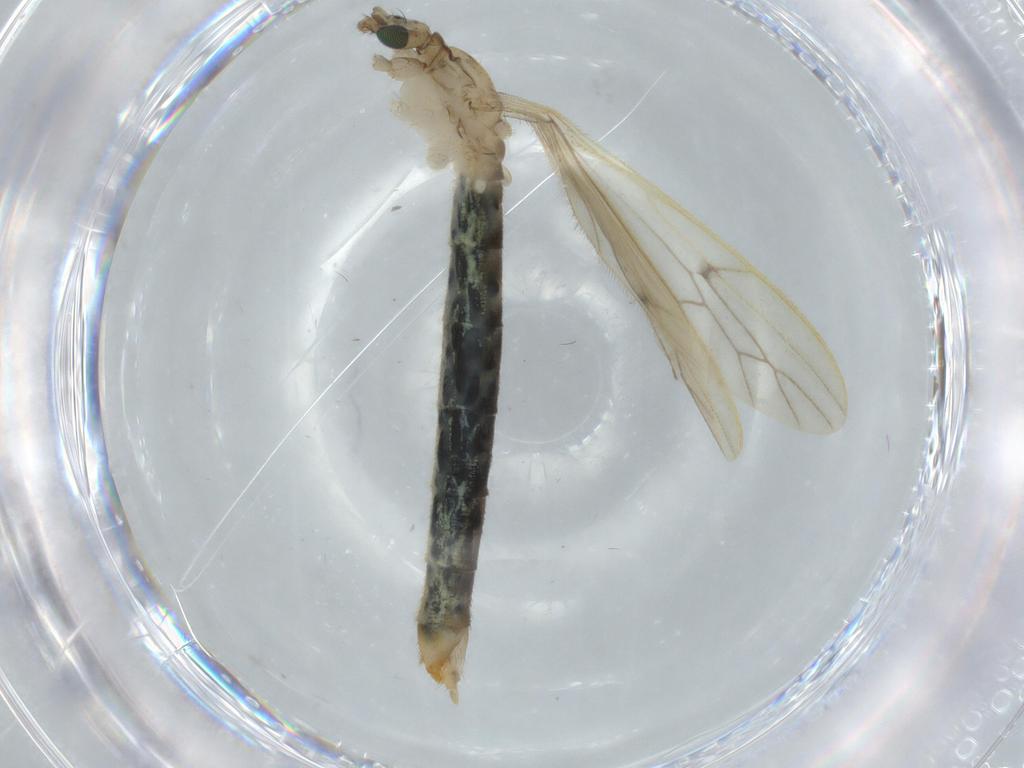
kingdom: Animalia
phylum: Arthropoda
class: Insecta
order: Diptera
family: Limoniidae
